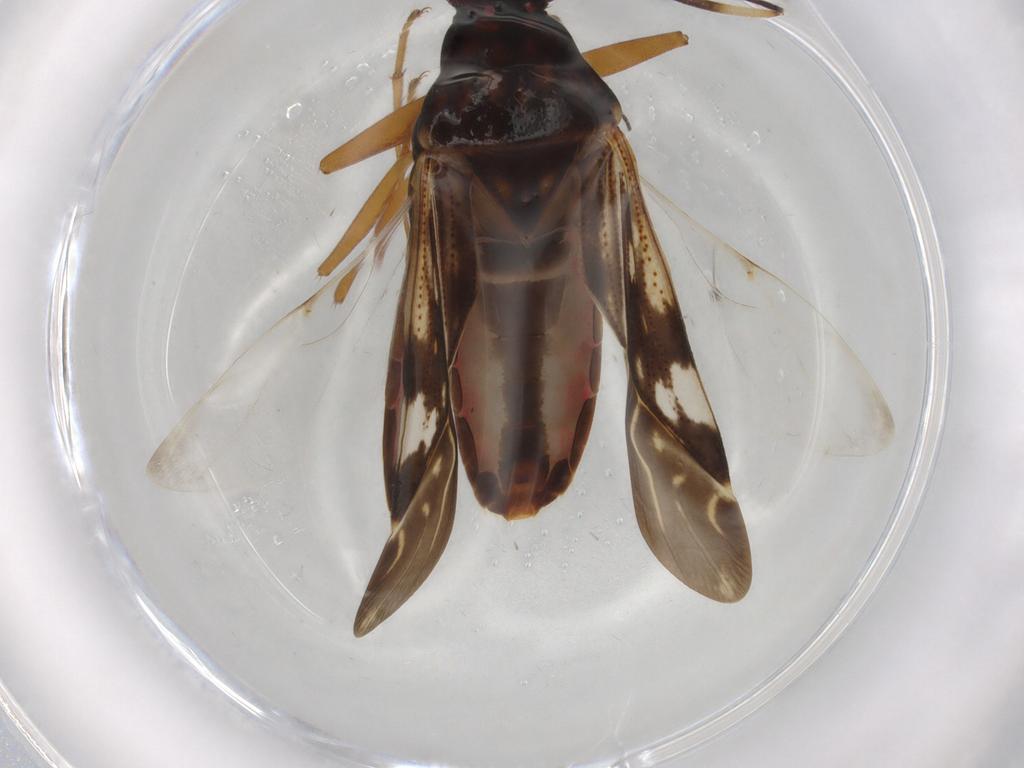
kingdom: Animalia
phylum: Arthropoda
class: Insecta
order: Hemiptera
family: Rhyparochromidae
